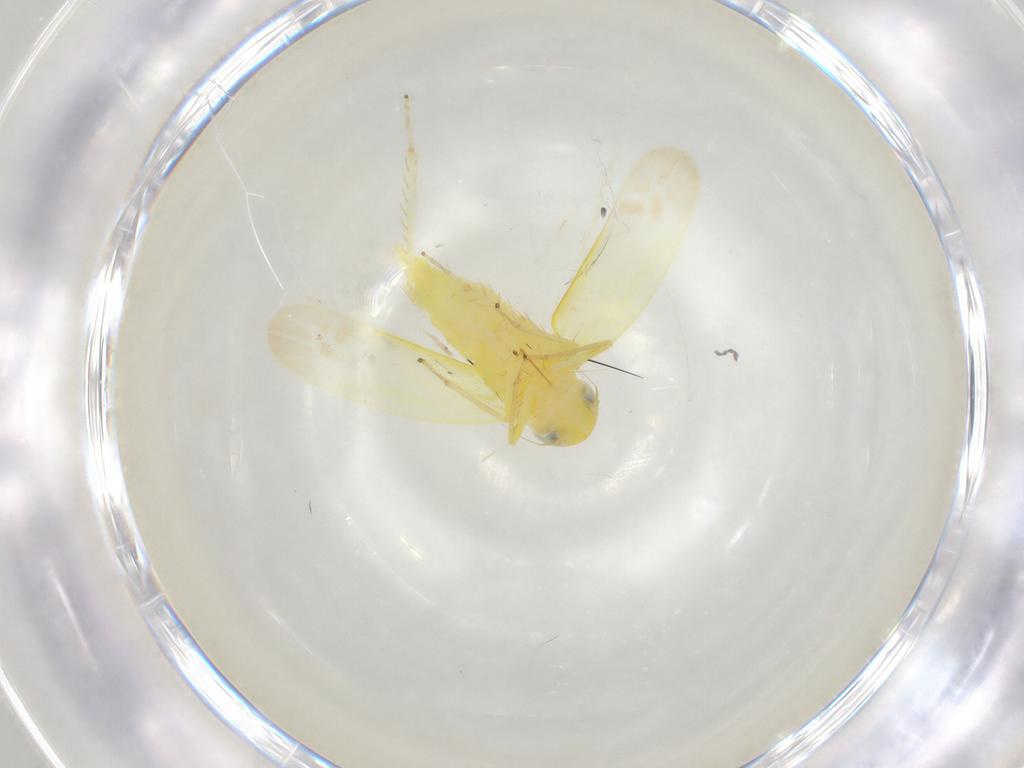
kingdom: Animalia
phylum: Arthropoda
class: Insecta
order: Hemiptera
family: Cicadellidae
